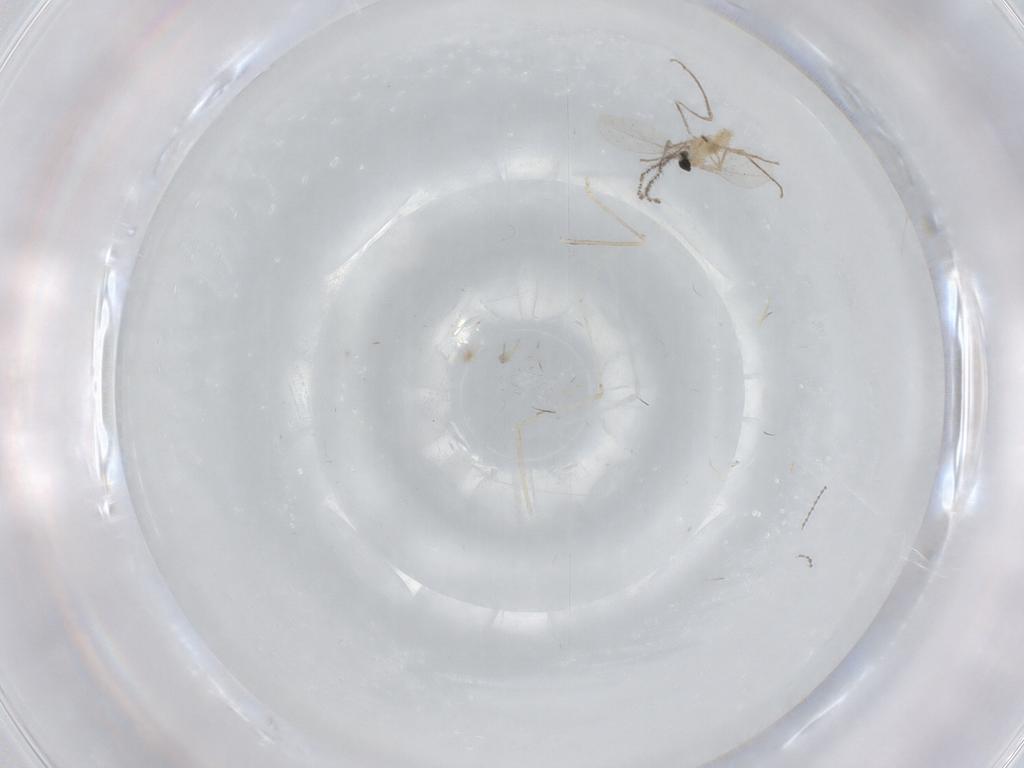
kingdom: Animalia
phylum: Arthropoda
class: Insecta
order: Diptera
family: Cecidomyiidae
